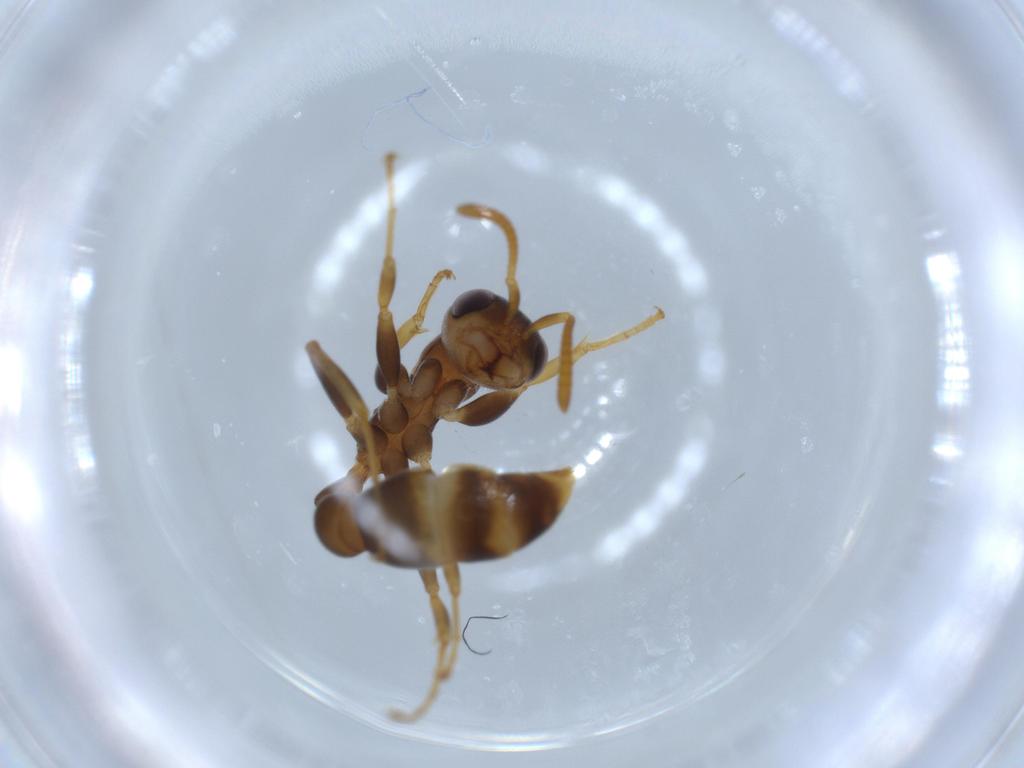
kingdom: Animalia
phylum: Arthropoda
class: Insecta
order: Hymenoptera
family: Formicidae
